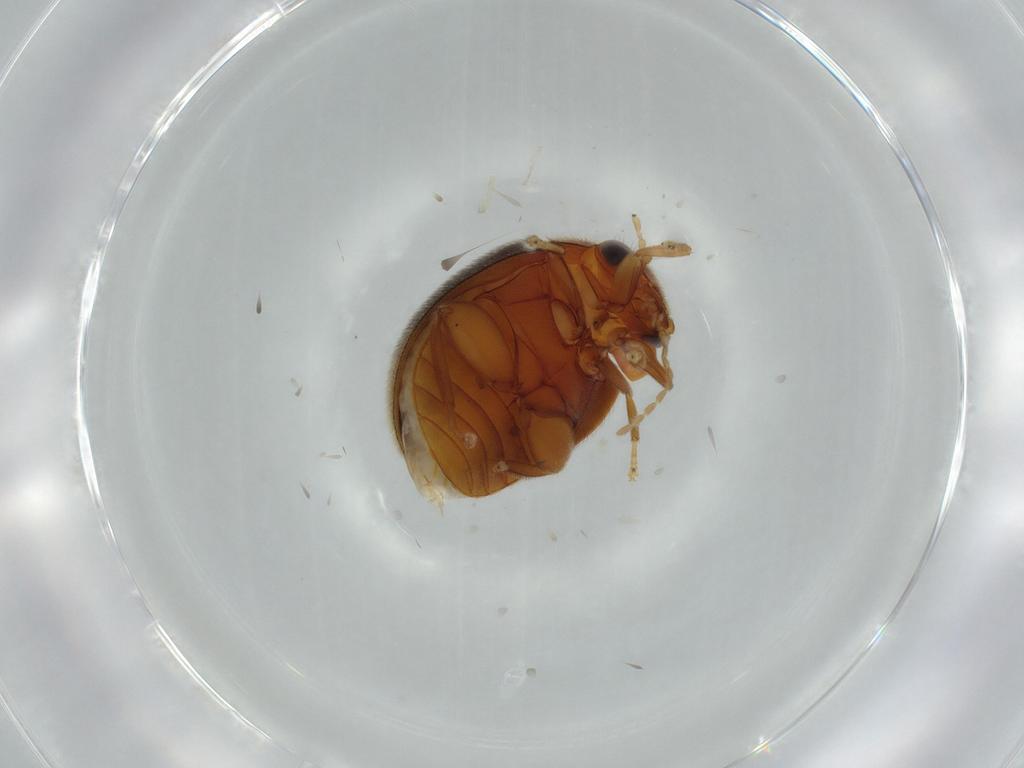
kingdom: Animalia
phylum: Arthropoda
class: Insecta
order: Coleoptera
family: Scirtidae
